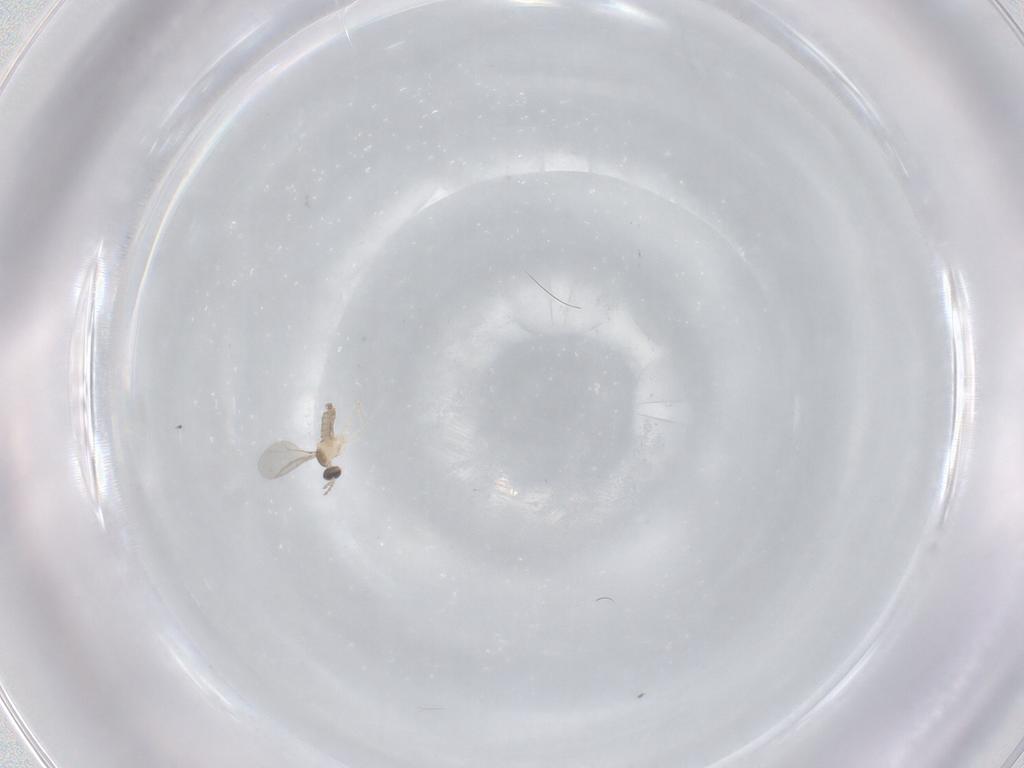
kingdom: Animalia
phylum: Arthropoda
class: Insecta
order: Diptera
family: Cecidomyiidae
